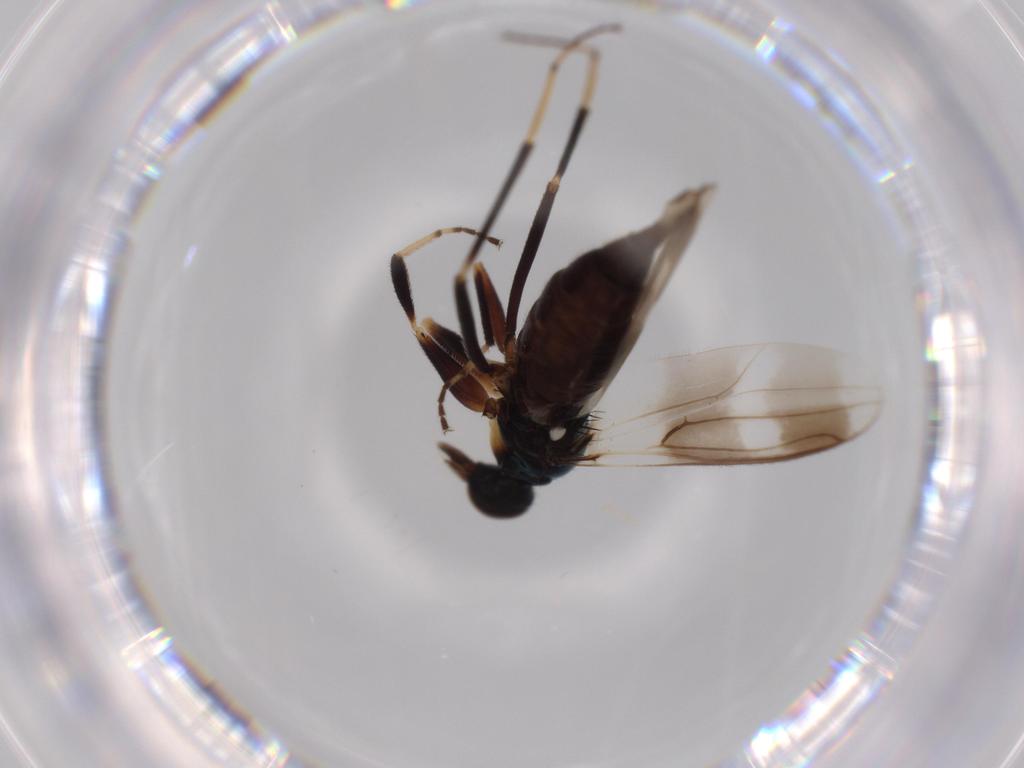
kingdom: Animalia
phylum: Arthropoda
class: Insecta
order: Diptera
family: Hybotidae
